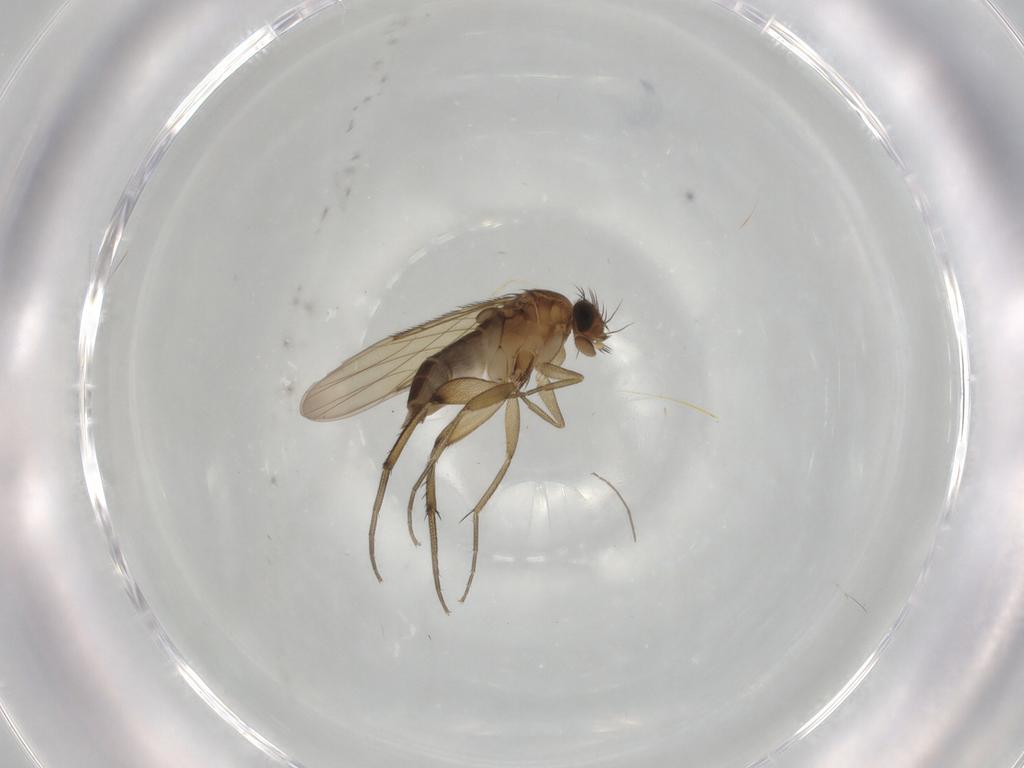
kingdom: Animalia
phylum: Arthropoda
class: Insecta
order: Diptera
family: Phoridae
